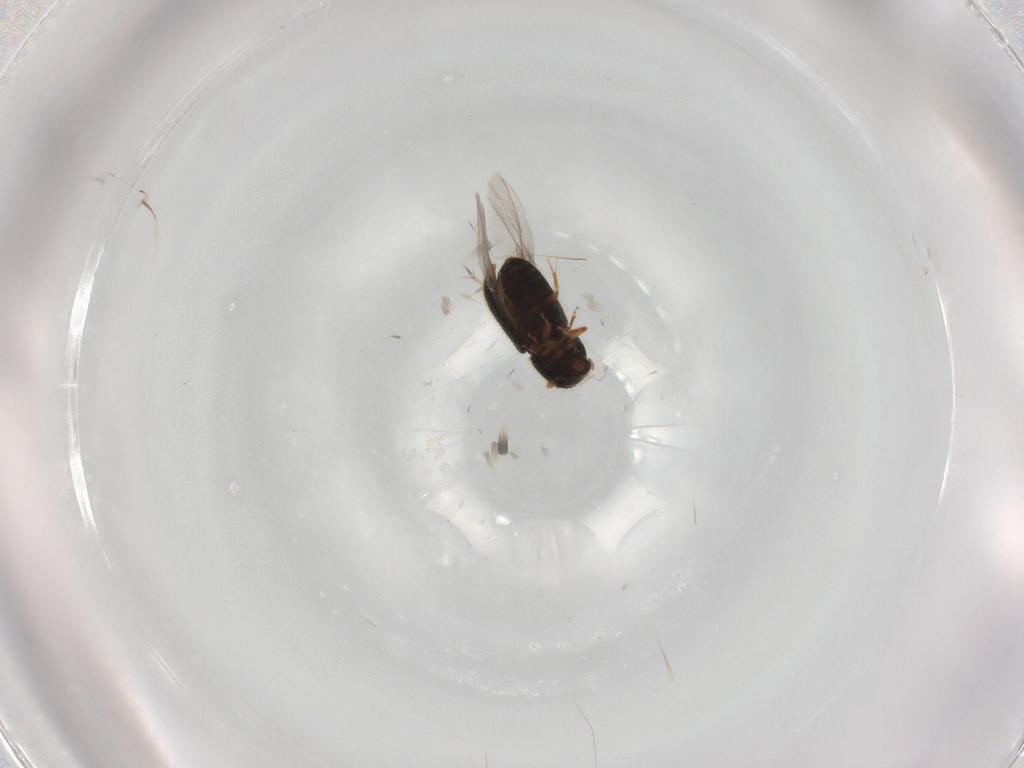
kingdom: Animalia
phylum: Arthropoda
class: Insecta
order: Coleoptera
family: Curculionidae
